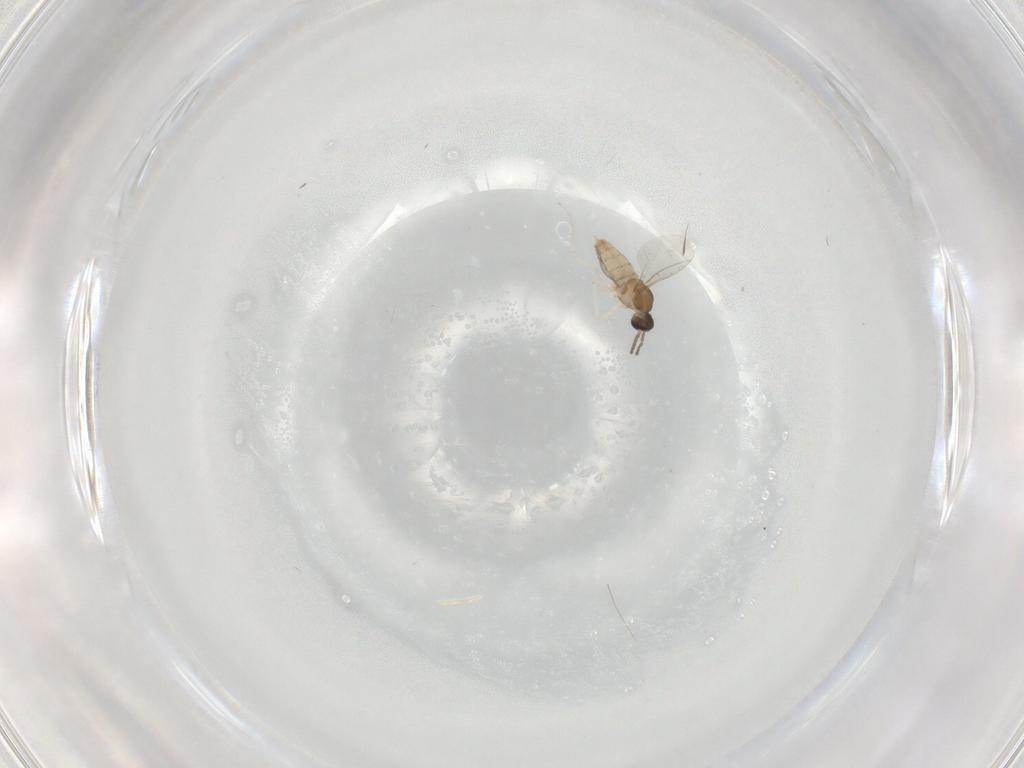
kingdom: Animalia
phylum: Arthropoda
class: Insecta
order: Diptera
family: Cecidomyiidae
